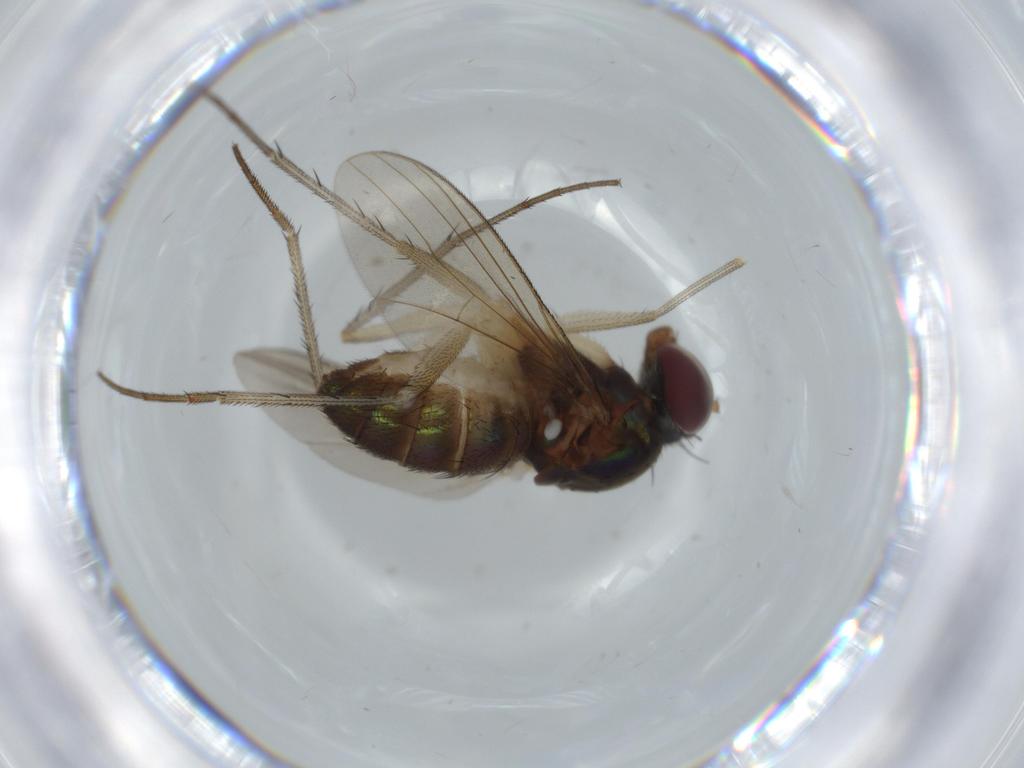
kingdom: Animalia
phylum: Arthropoda
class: Insecta
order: Diptera
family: Dolichopodidae
